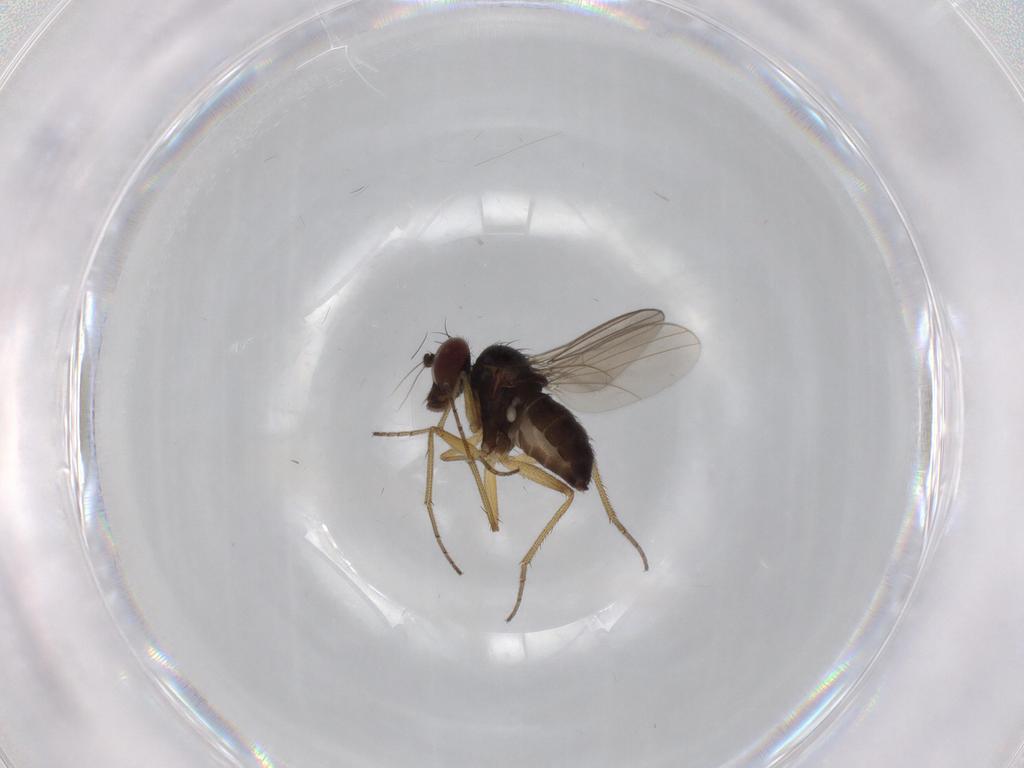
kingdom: Animalia
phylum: Arthropoda
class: Insecta
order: Diptera
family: Dolichopodidae
